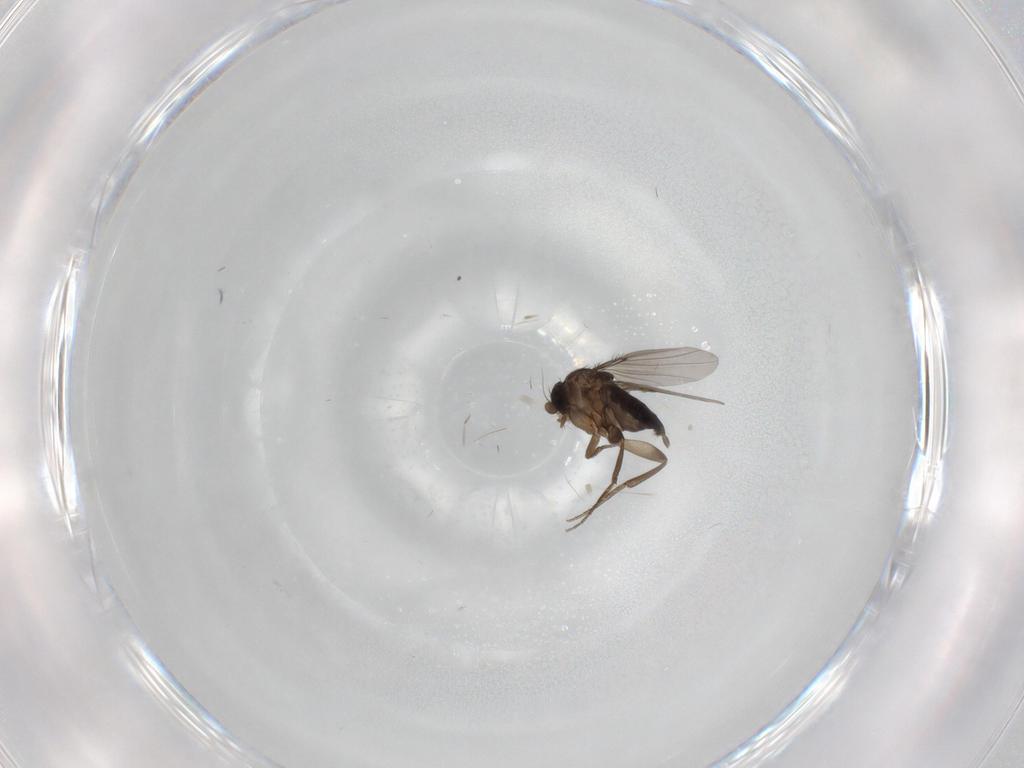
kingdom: Animalia
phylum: Arthropoda
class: Insecta
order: Diptera
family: Phoridae
